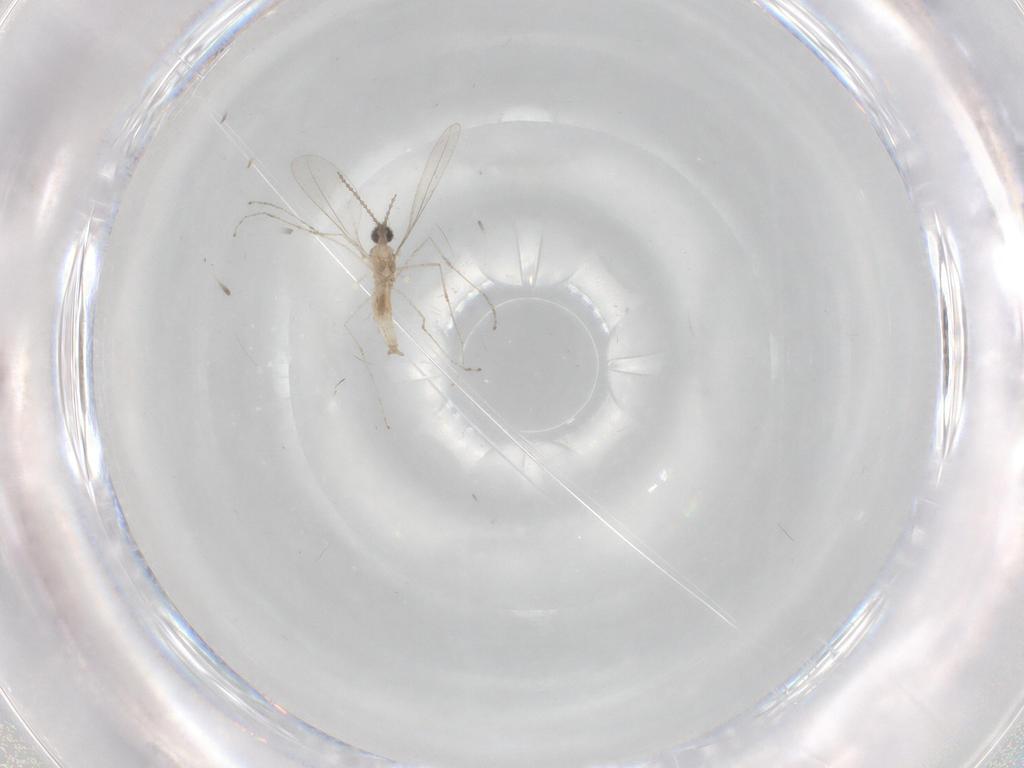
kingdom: Animalia
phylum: Arthropoda
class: Insecta
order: Diptera
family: Cecidomyiidae
